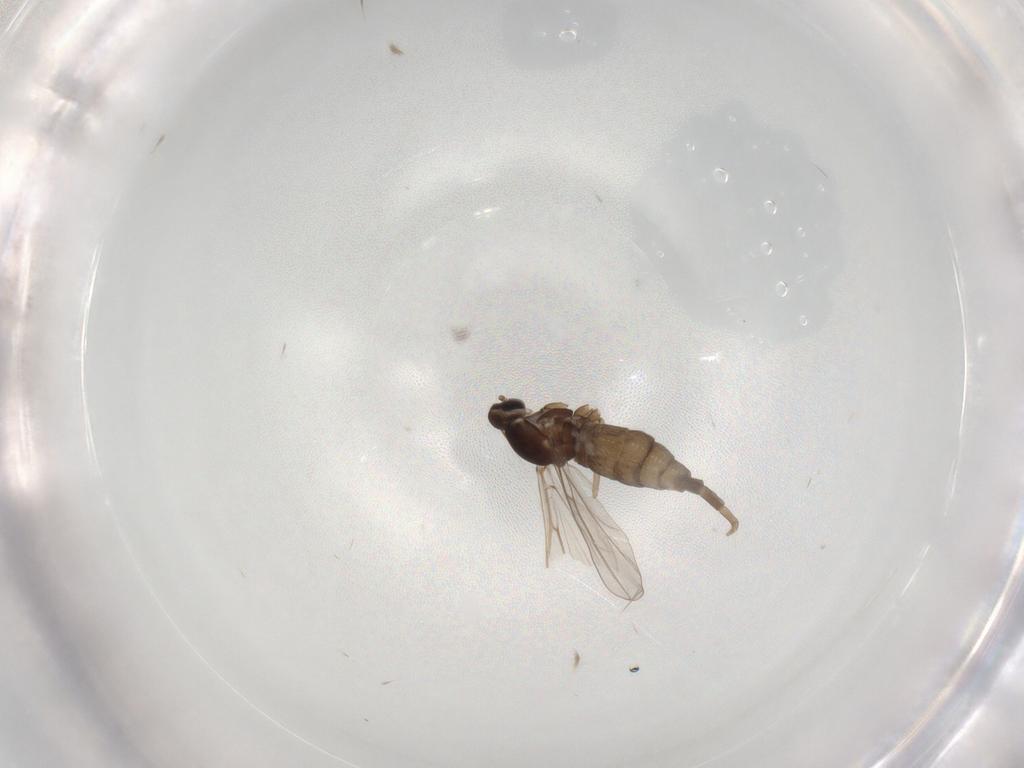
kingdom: Animalia
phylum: Arthropoda
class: Insecta
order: Diptera
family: Cecidomyiidae
